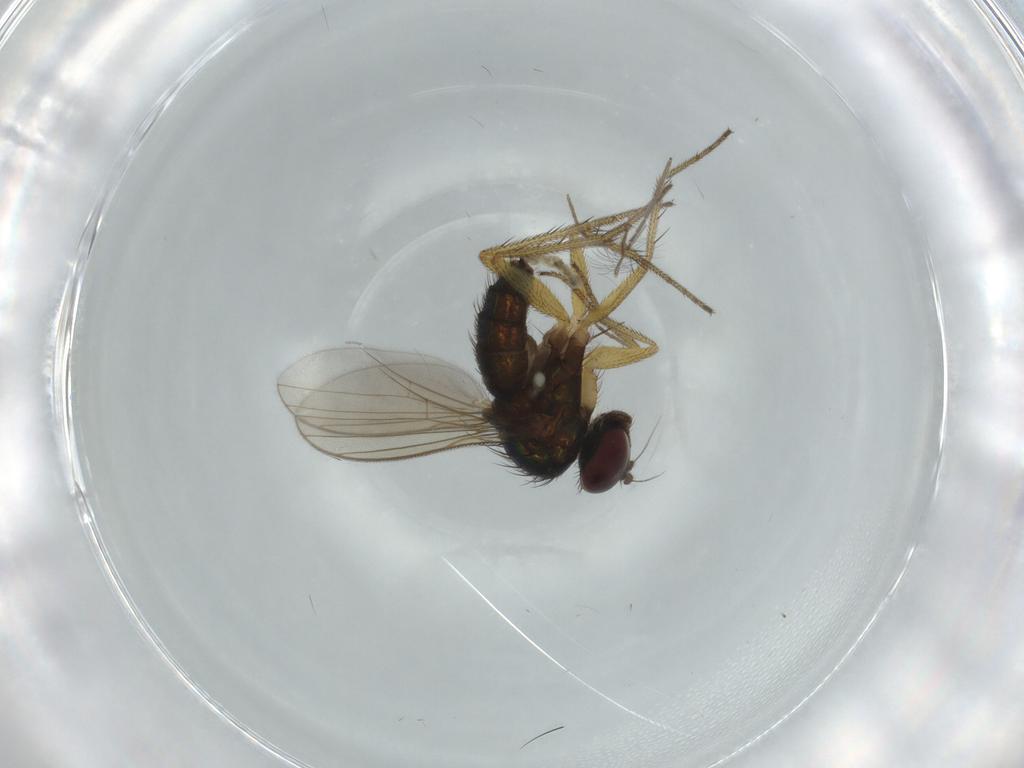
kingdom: Animalia
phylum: Arthropoda
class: Insecta
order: Diptera
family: Dolichopodidae
